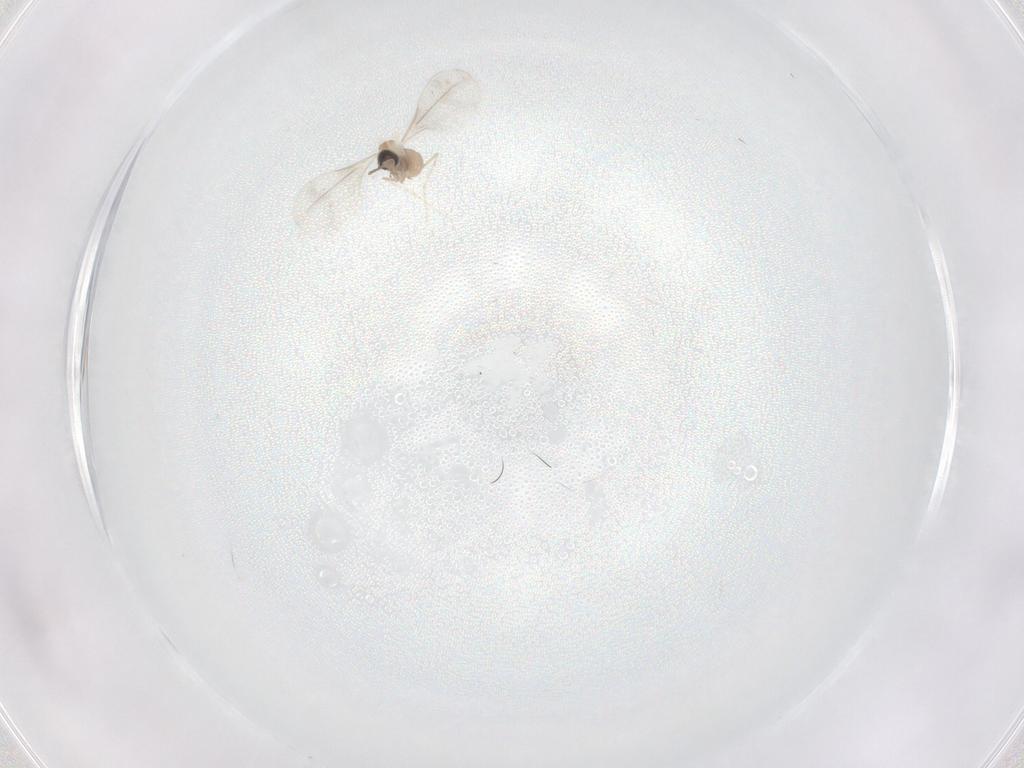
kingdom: Animalia
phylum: Arthropoda
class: Insecta
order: Diptera
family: Cecidomyiidae
